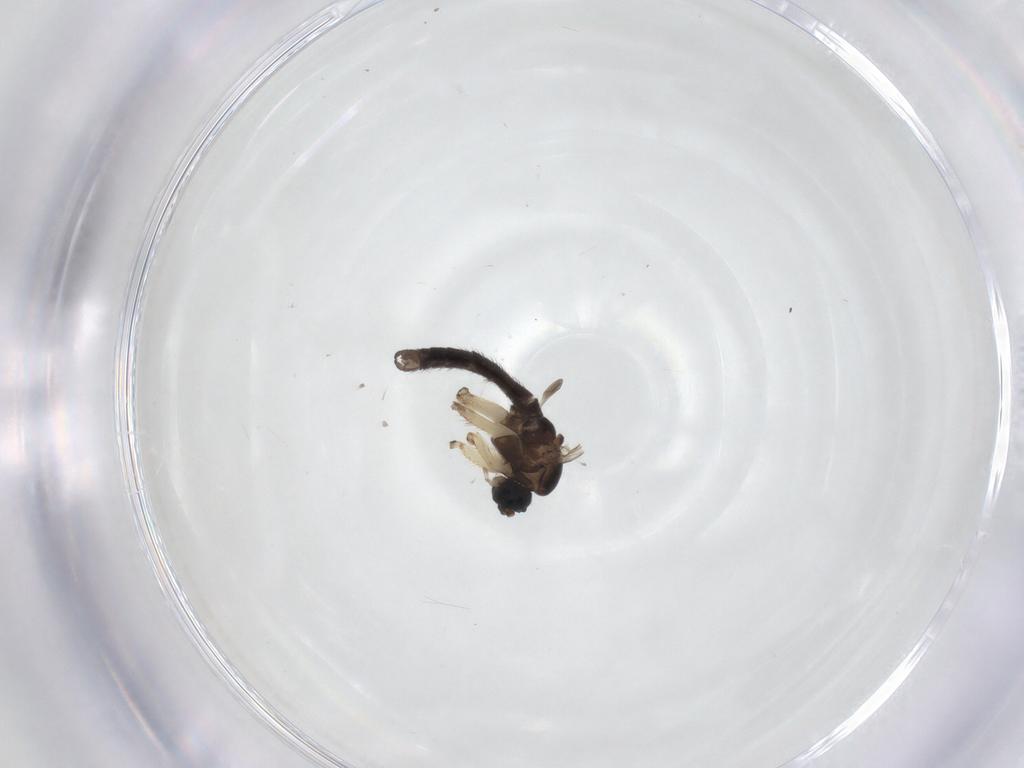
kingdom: Animalia
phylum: Arthropoda
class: Insecta
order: Diptera
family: Sciaridae
